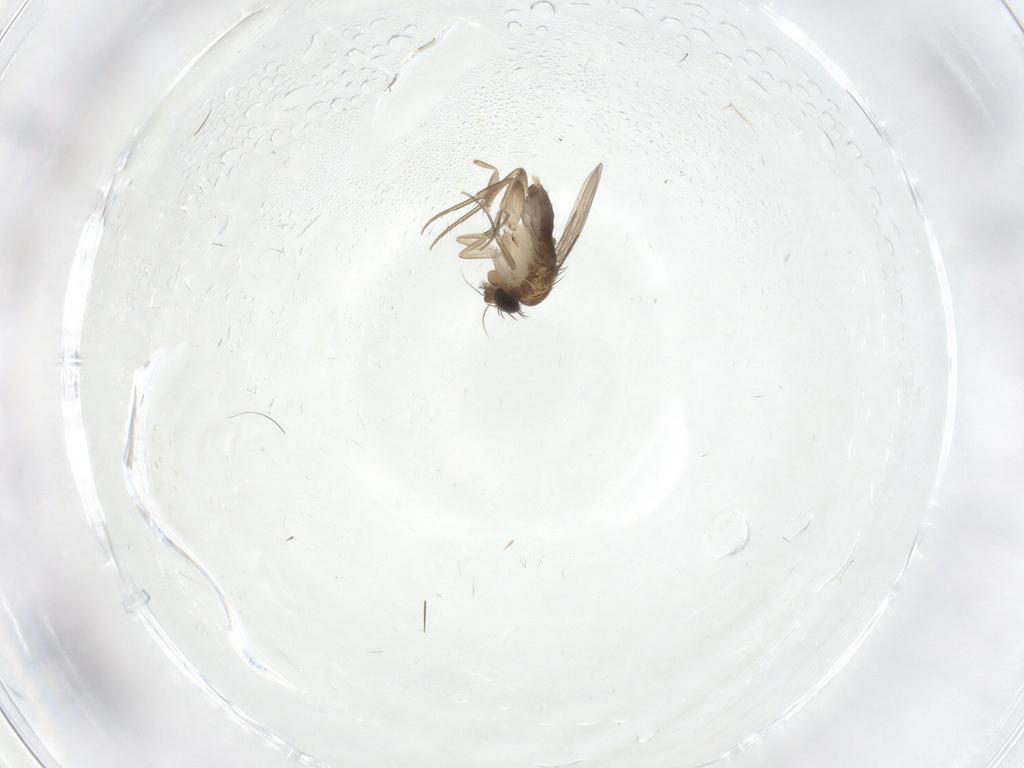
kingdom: Animalia
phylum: Arthropoda
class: Insecta
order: Diptera
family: Phoridae
